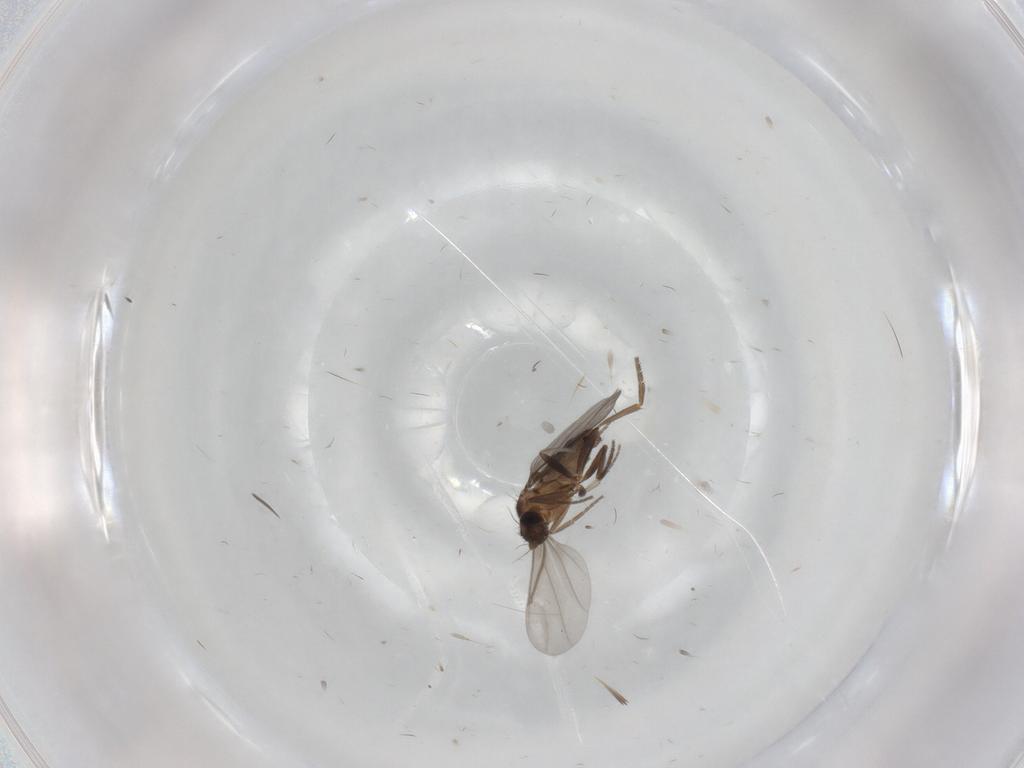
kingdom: Animalia
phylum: Arthropoda
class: Insecta
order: Diptera
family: Phoridae
